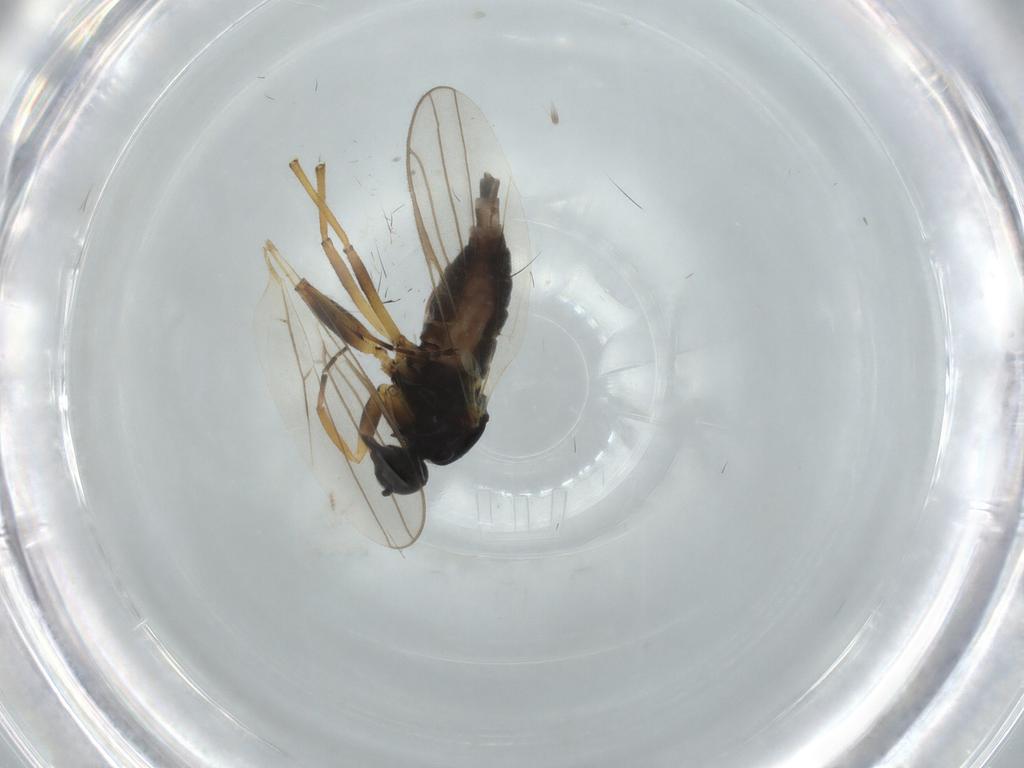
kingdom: Animalia
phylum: Arthropoda
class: Insecta
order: Diptera
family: Hybotidae
